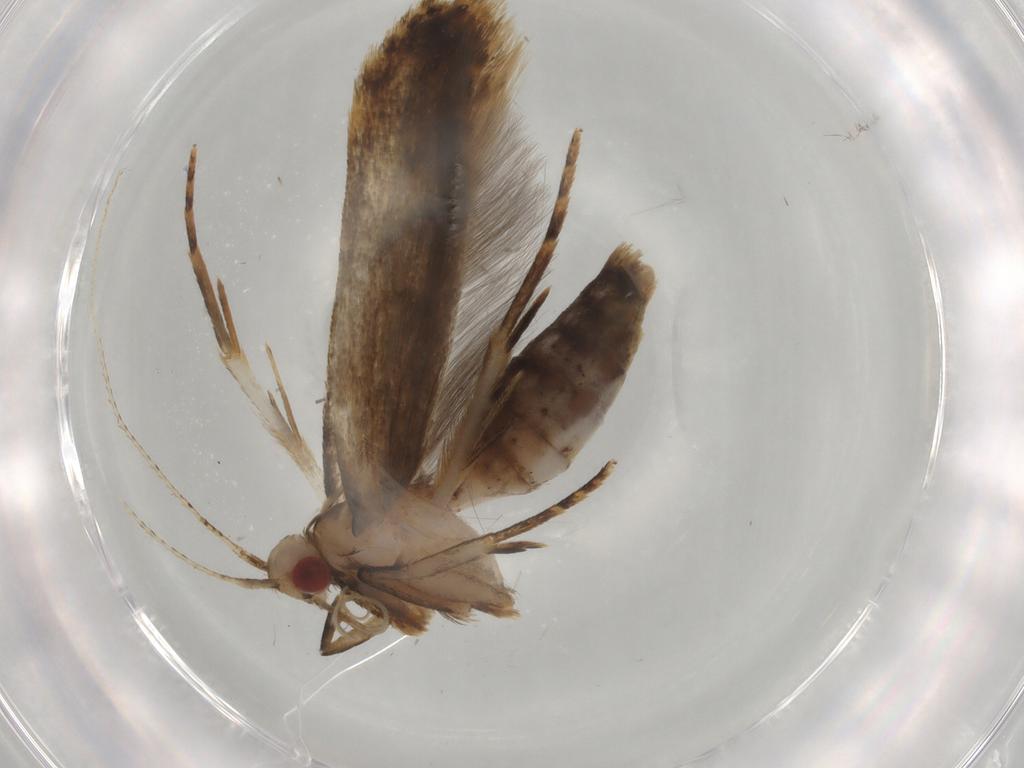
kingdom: Animalia
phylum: Arthropoda
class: Insecta
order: Lepidoptera
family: Gelechiidae
